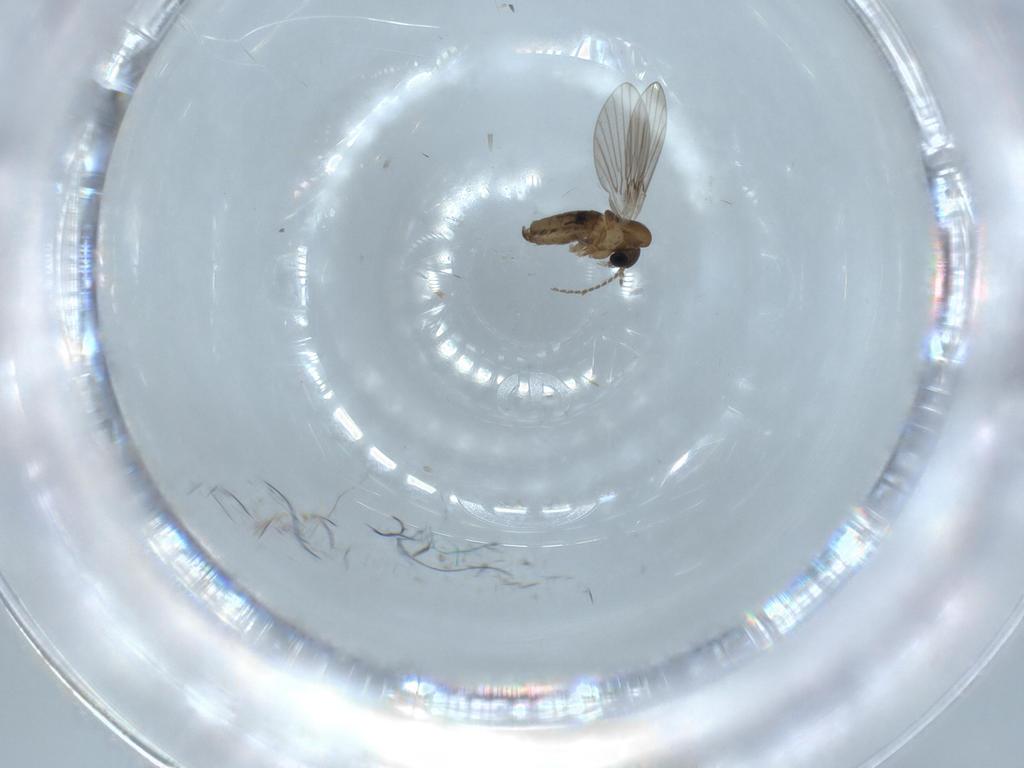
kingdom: Animalia
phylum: Arthropoda
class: Insecta
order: Diptera
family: Psychodidae
